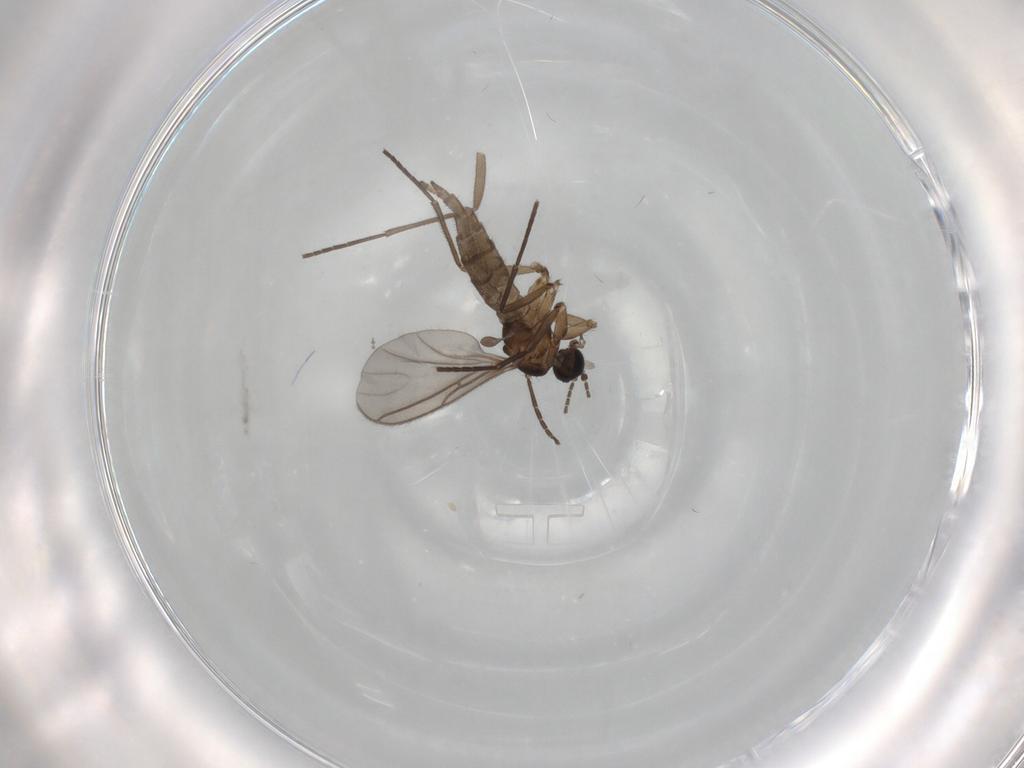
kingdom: Animalia
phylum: Arthropoda
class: Insecta
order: Diptera
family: Sciaridae
